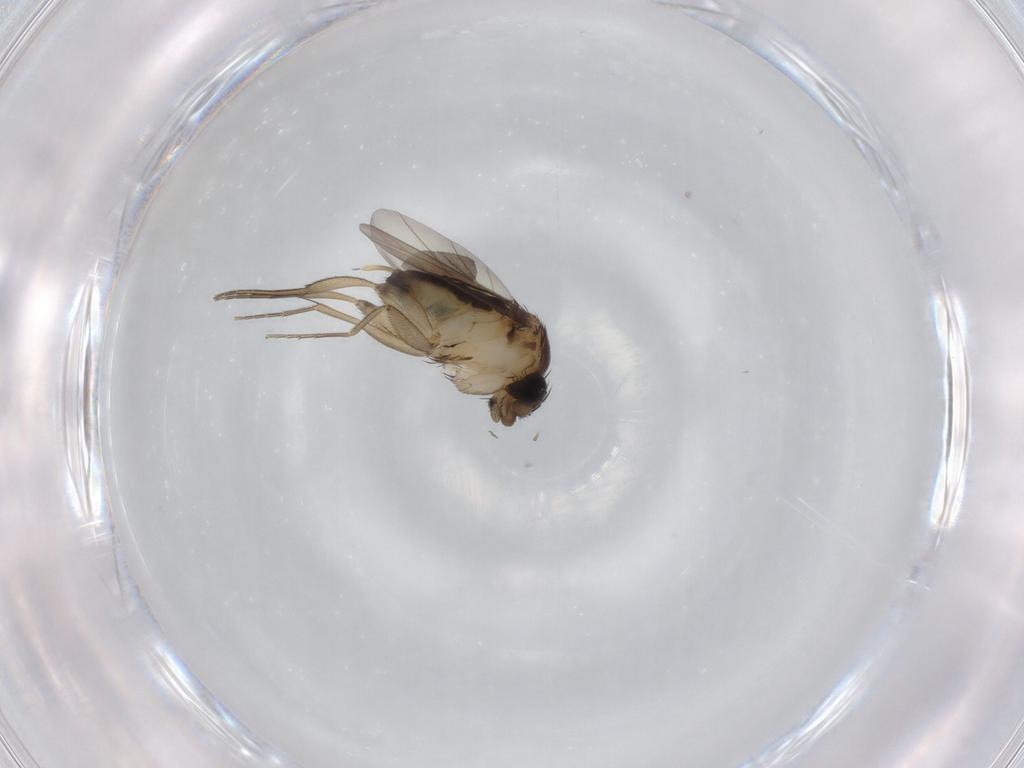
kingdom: Animalia
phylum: Arthropoda
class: Insecta
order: Diptera
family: Phoridae
